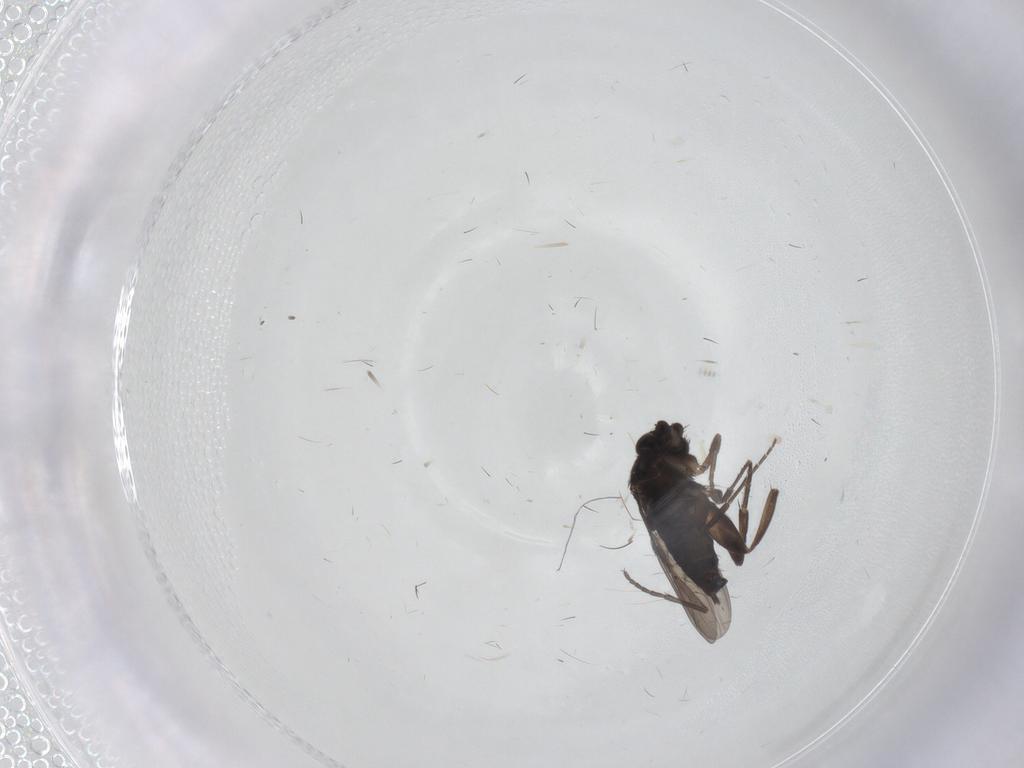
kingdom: Animalia
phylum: Arthropoda
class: Insecta
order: Diptera
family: Phoridae
